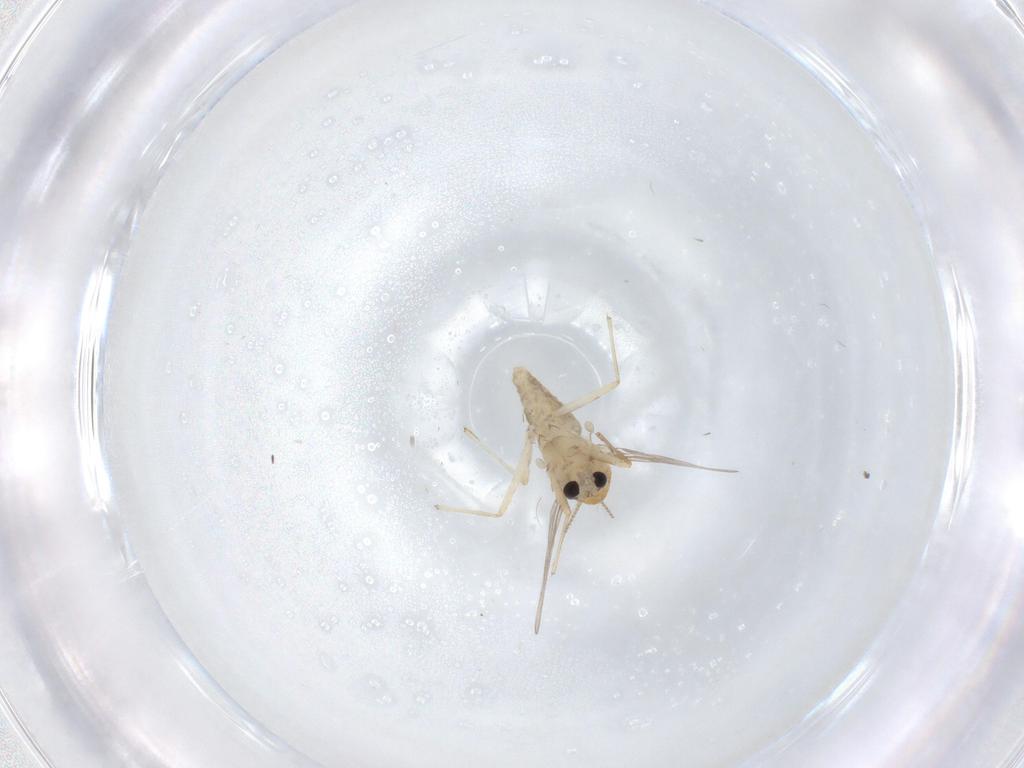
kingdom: Animalia
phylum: Arthropoda
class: Insecta
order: Diptera
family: Chironomidae
